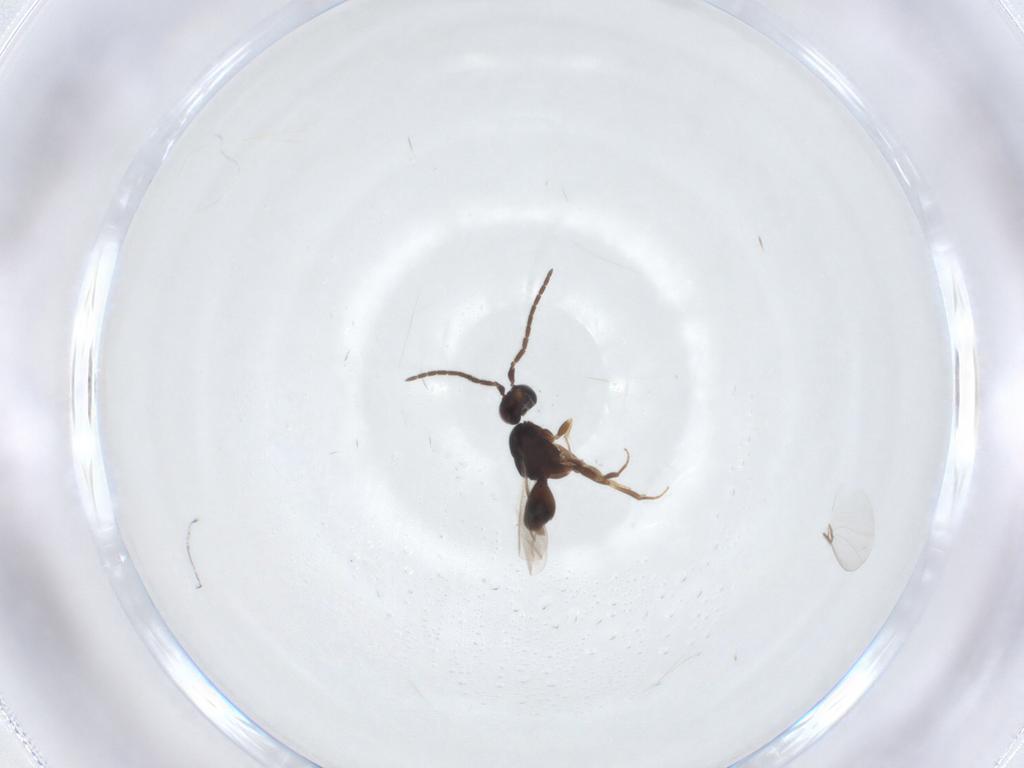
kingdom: Animalia
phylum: Arthropoda
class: Insecta
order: Hymenoptera
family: Megaspilidae
